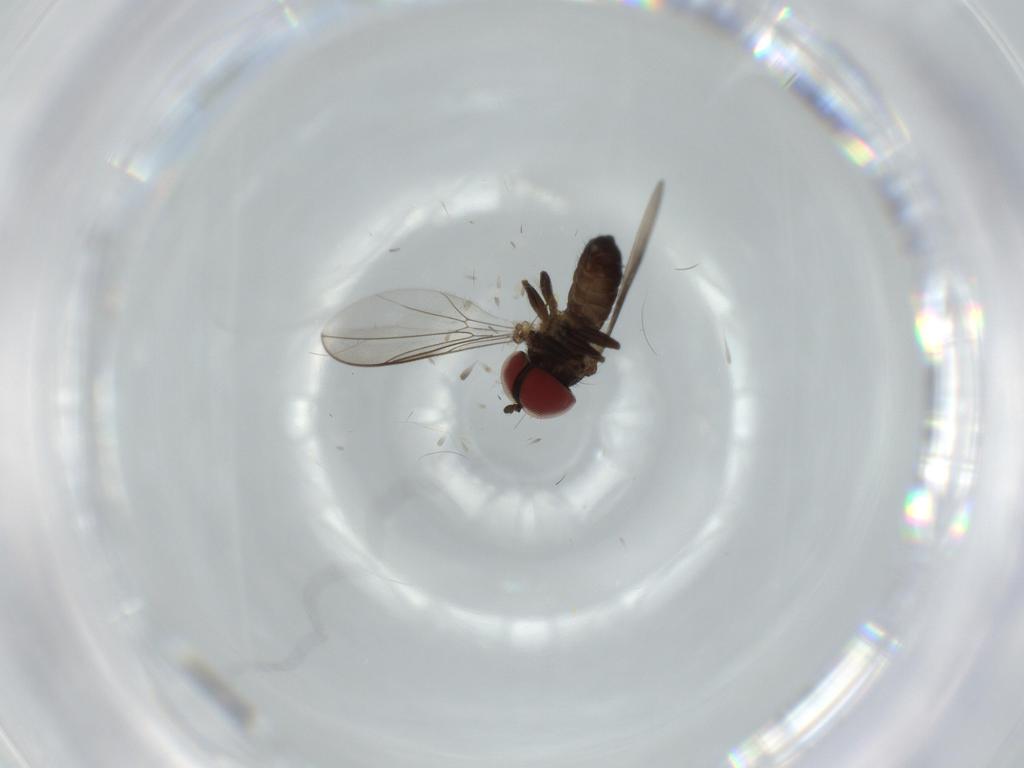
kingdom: Animalia
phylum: Arthropoda
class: Insecta
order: Diptera
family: Pipunculidae
